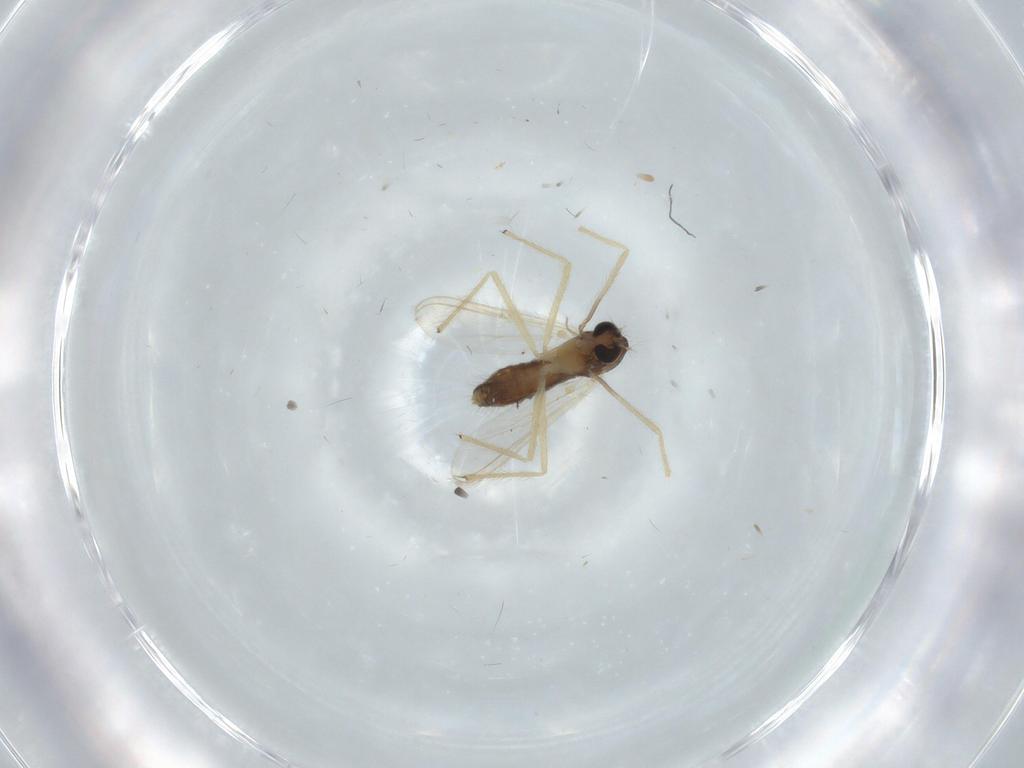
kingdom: Animalia
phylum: Arthropoda
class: Insecta
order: Diptera
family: Chironomidae
